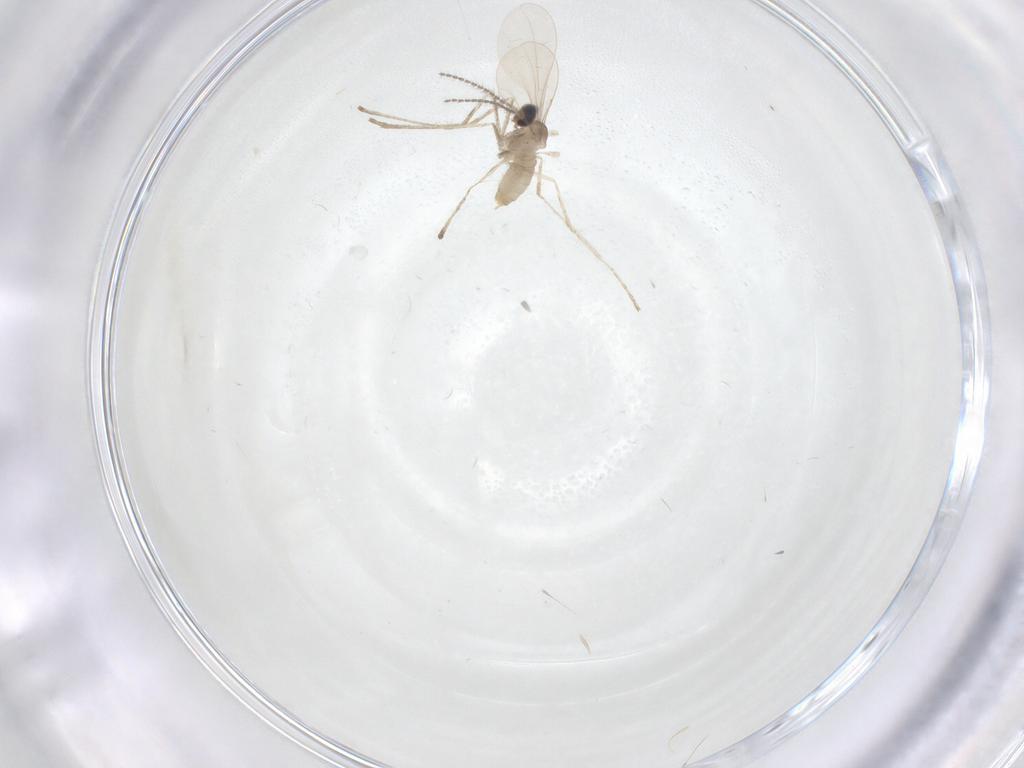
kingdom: Animalia
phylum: Arthropoda
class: Insecta
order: Diptera
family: Cecidomyiidae
